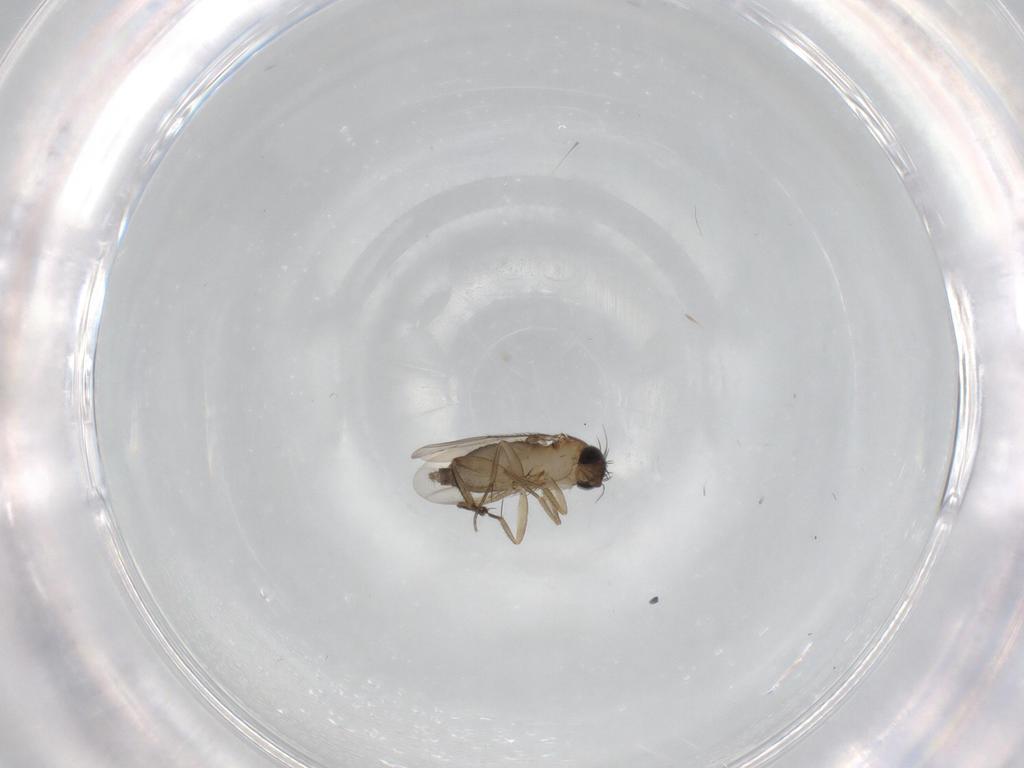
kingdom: Animalia
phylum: Arthropoda
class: Insecta
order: Diptera
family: Phoridae
